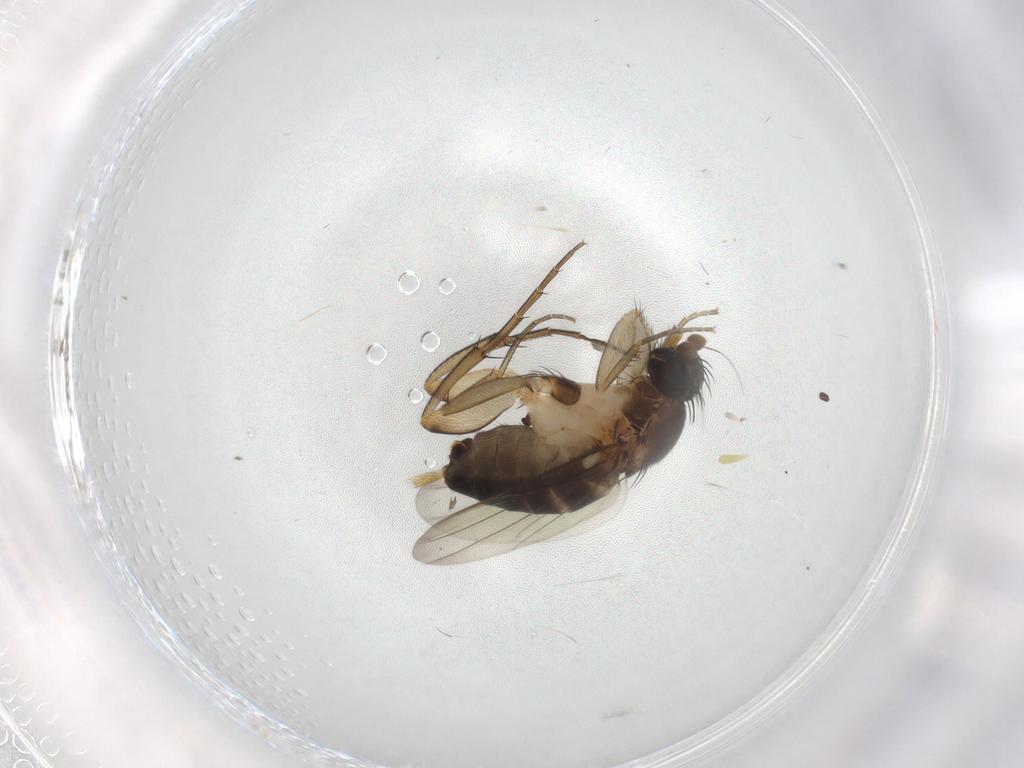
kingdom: Animalia
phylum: Arthropoda
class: Insecta
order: Diptera
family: Phoridae
